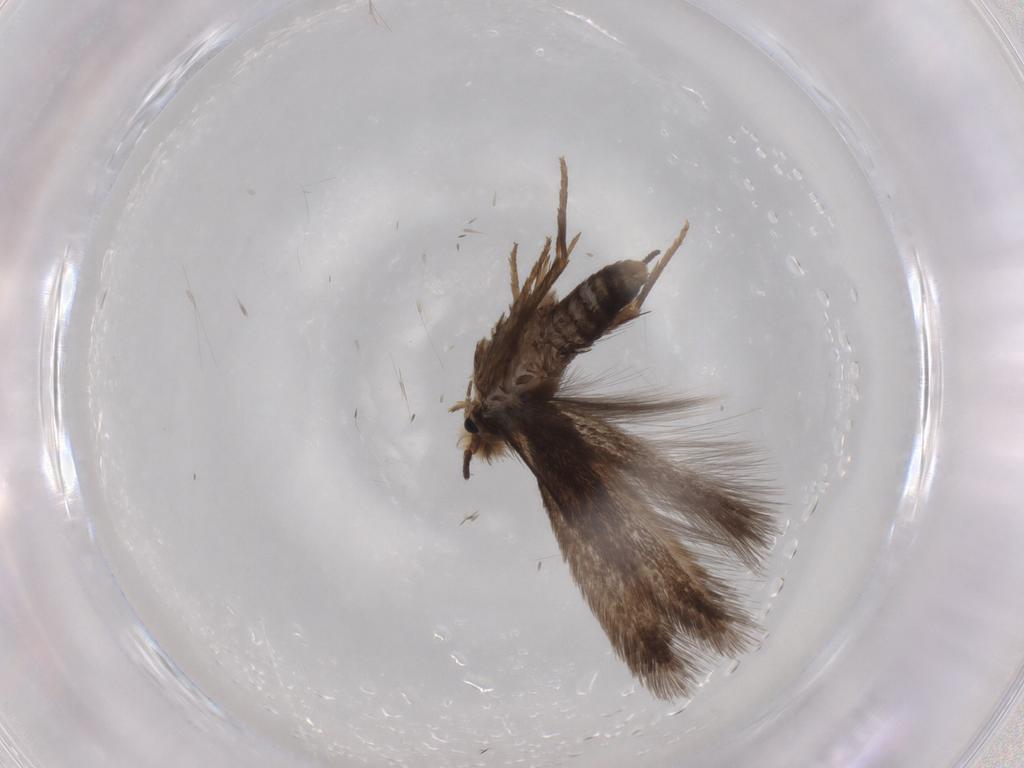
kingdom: Animalia
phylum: Arthropoda
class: Insecta
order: Lepidoptera
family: Nepticulidae
